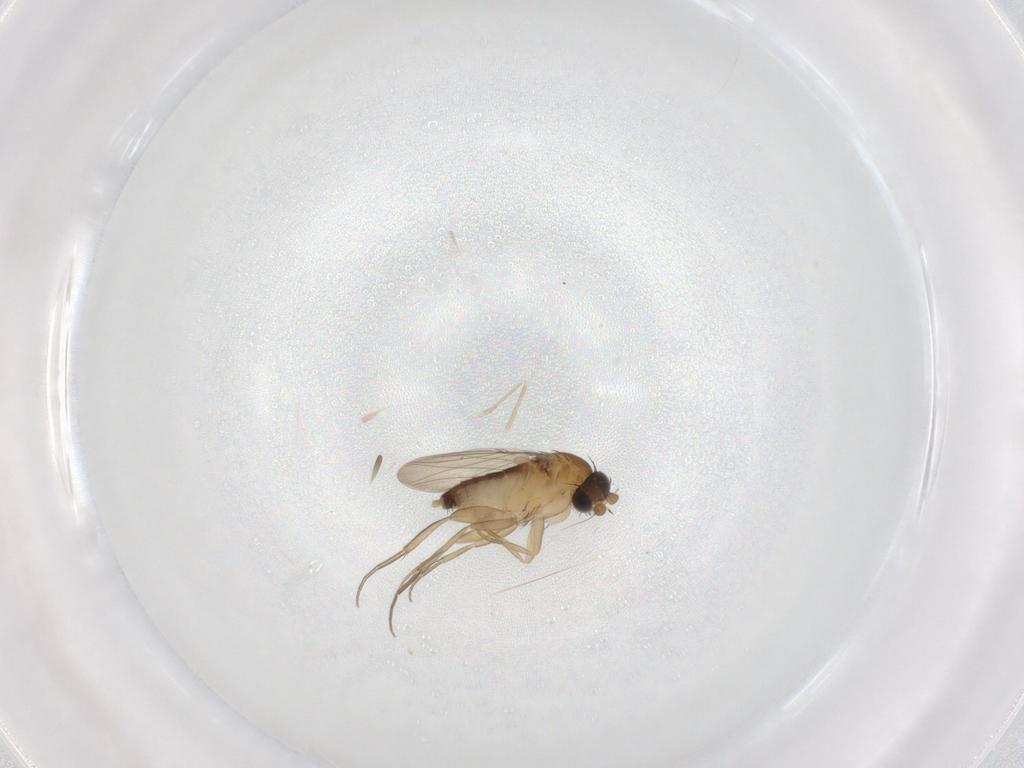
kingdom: Animalia
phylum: Arthropoda
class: Insecta
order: Diptera
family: Phoridae
